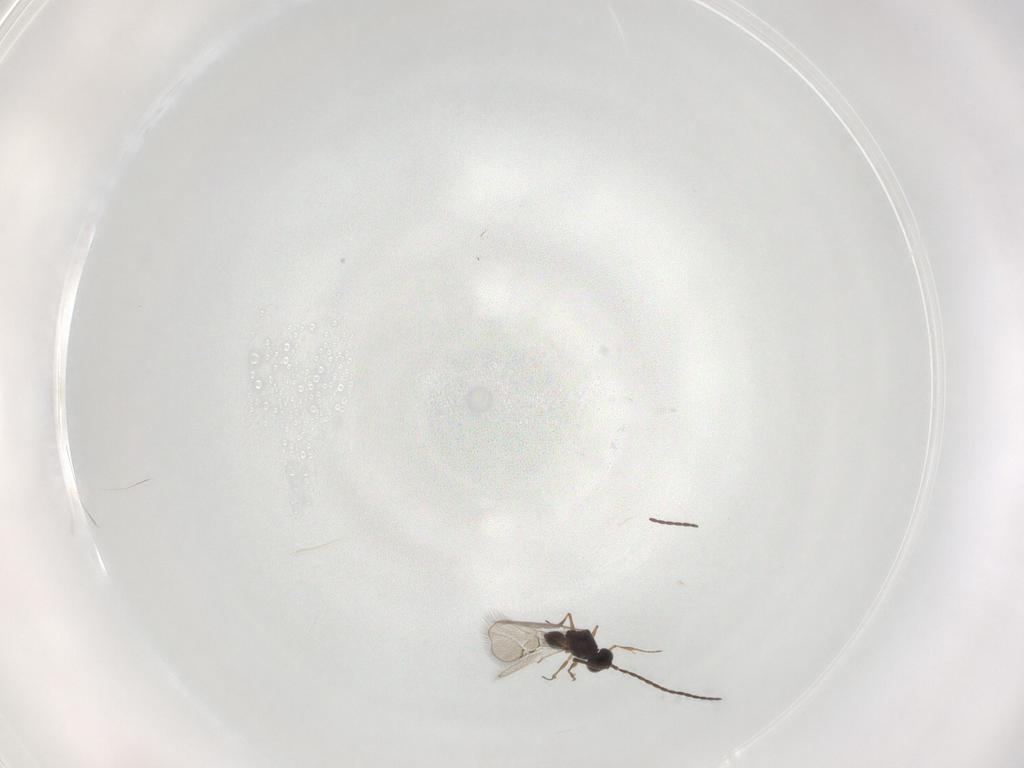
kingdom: Animalia
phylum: Arthropoda
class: Insecta
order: Hymenoptera
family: Figitidae
